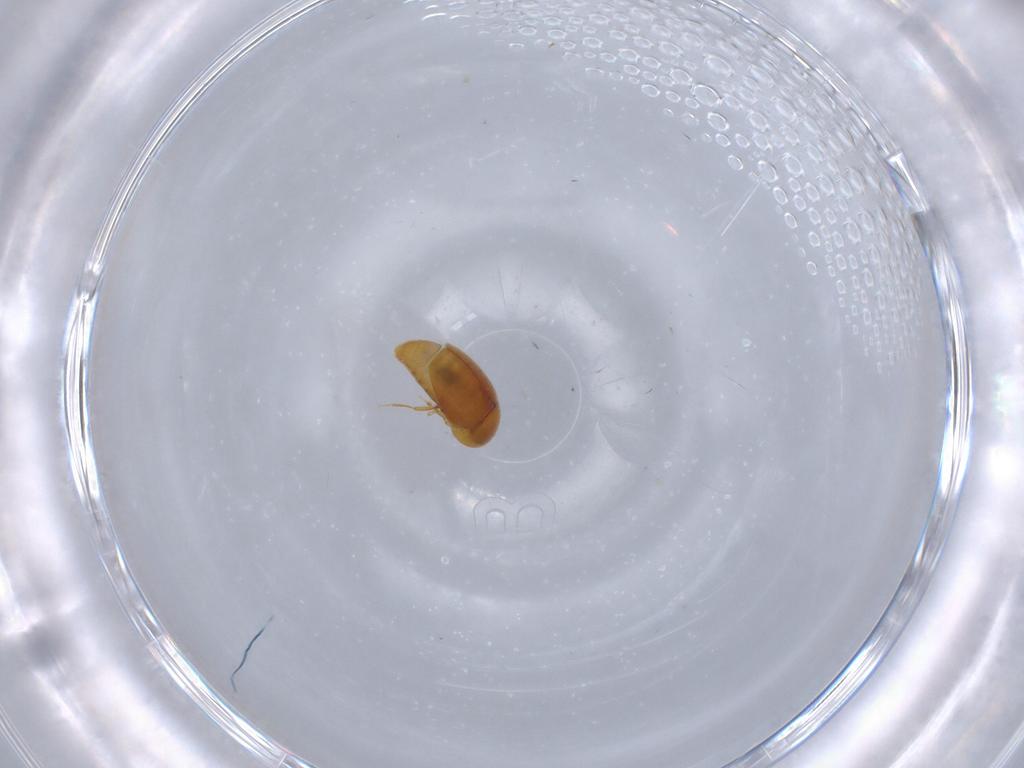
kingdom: Animalia
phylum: Arthropoda
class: Insecta
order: Coleoptera
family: Corylophidae
